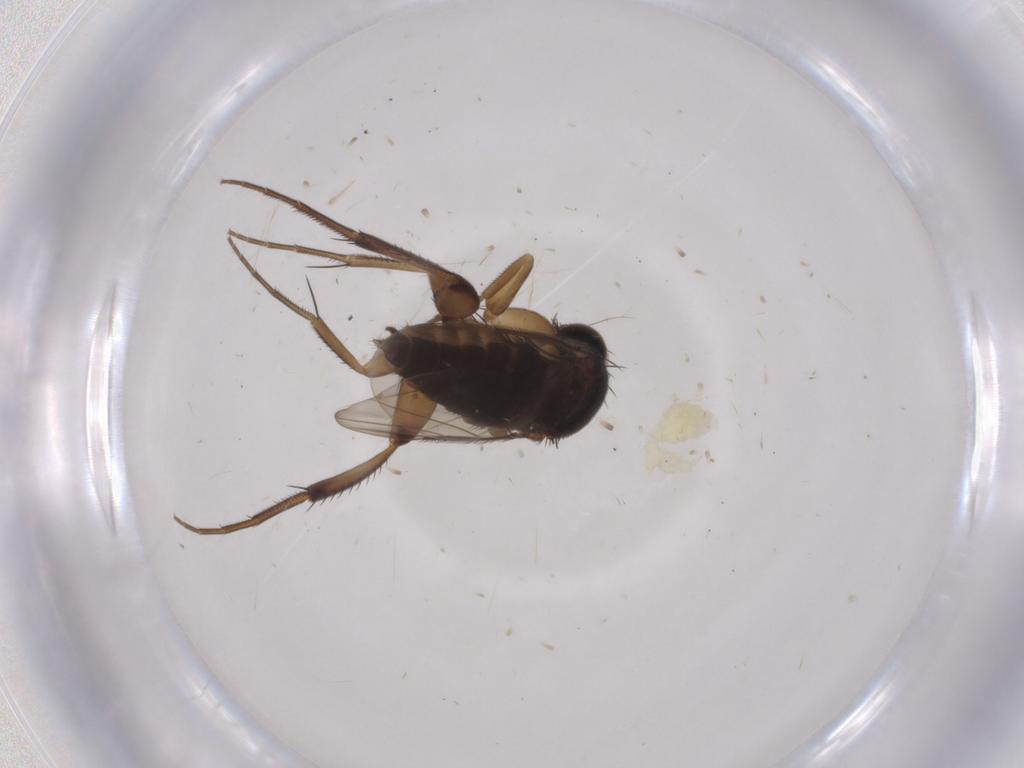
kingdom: Animalia
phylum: Arthropoda
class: Insecta
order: Diptera
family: Phoridae
